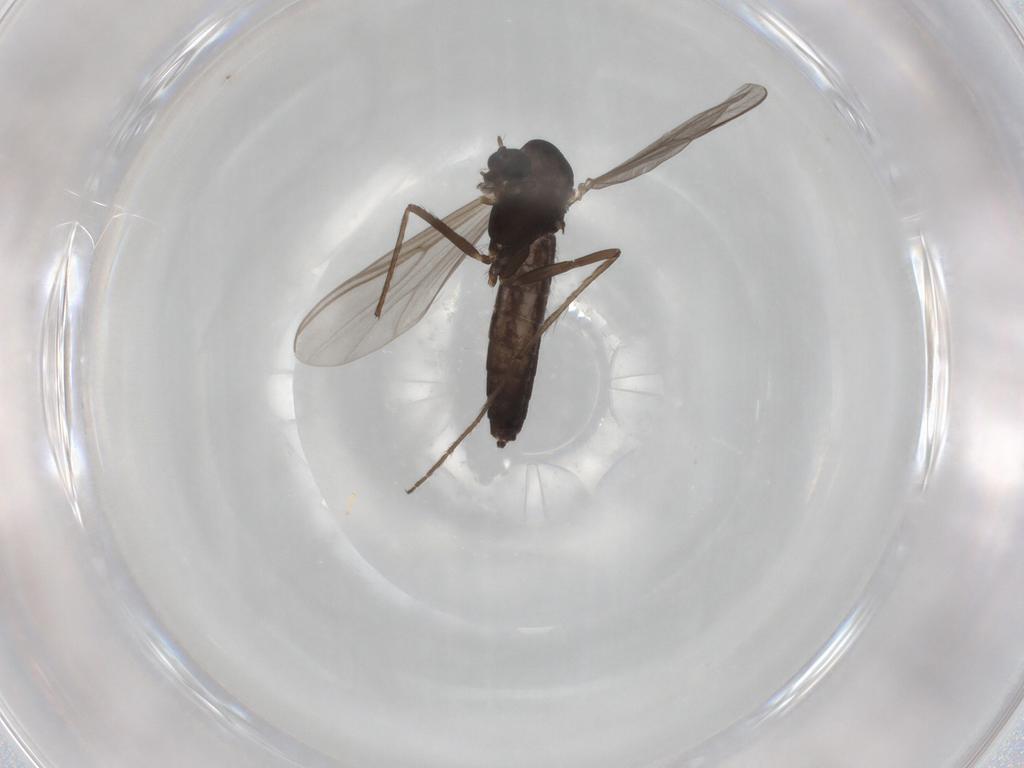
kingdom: Animalia
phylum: Arthropoda
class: Insecta
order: Diptera
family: Chironomidae
